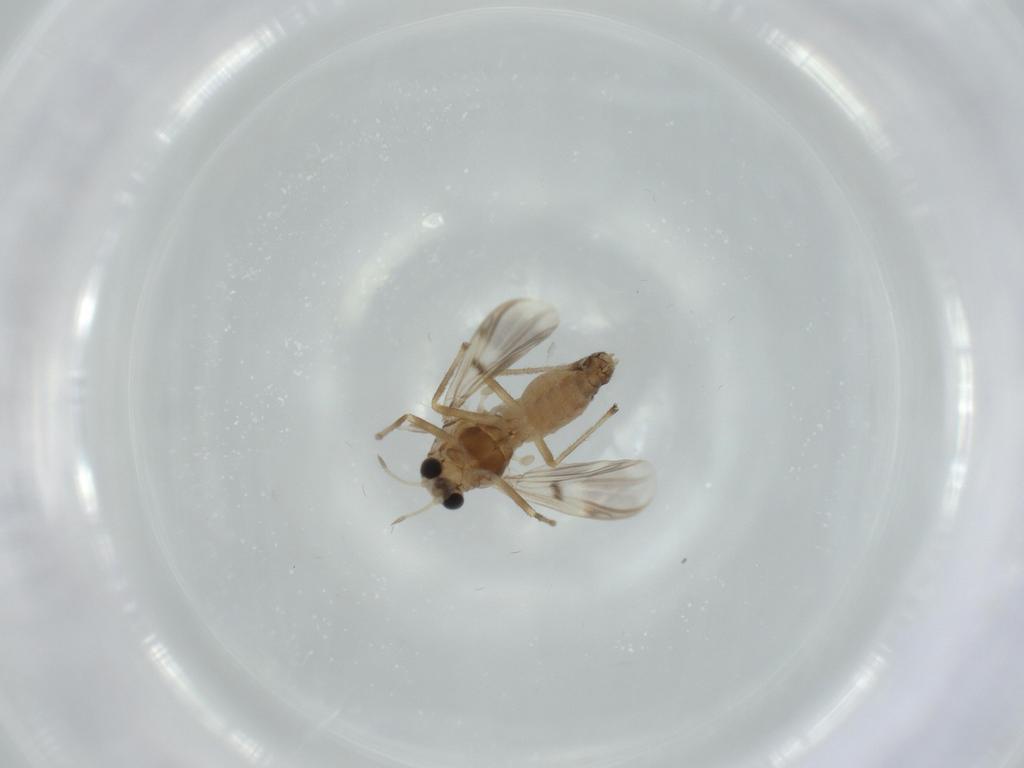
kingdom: Animalia
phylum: Arthropoda
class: Insecta
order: Diptera
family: Chironomidae
